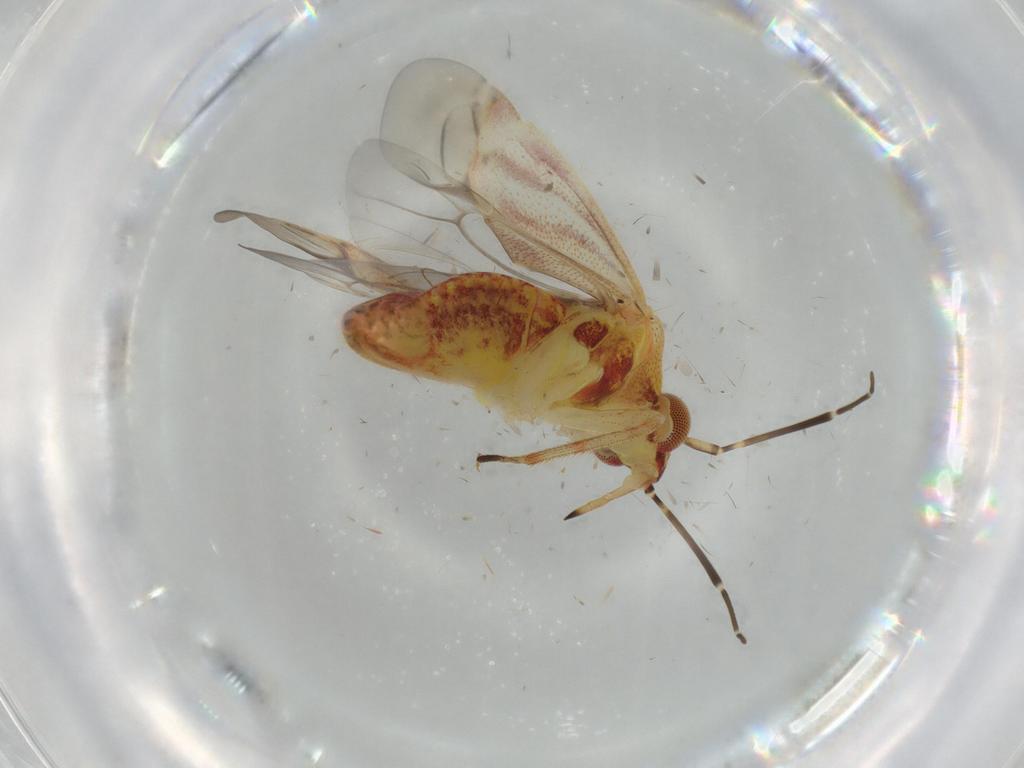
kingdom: Animalia
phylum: Arthropoda
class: Insecta
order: Hemiptera
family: Miridae
